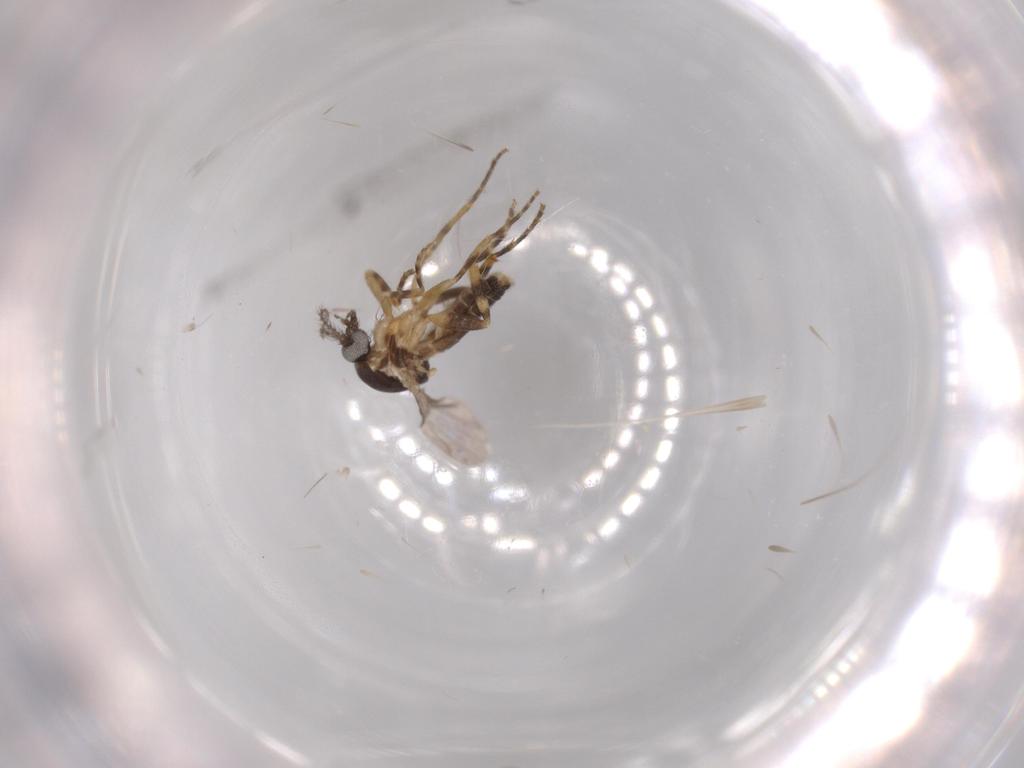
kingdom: Animalia
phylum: Arthropoda
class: Insecta
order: Diptera
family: Ceratopogonidae
